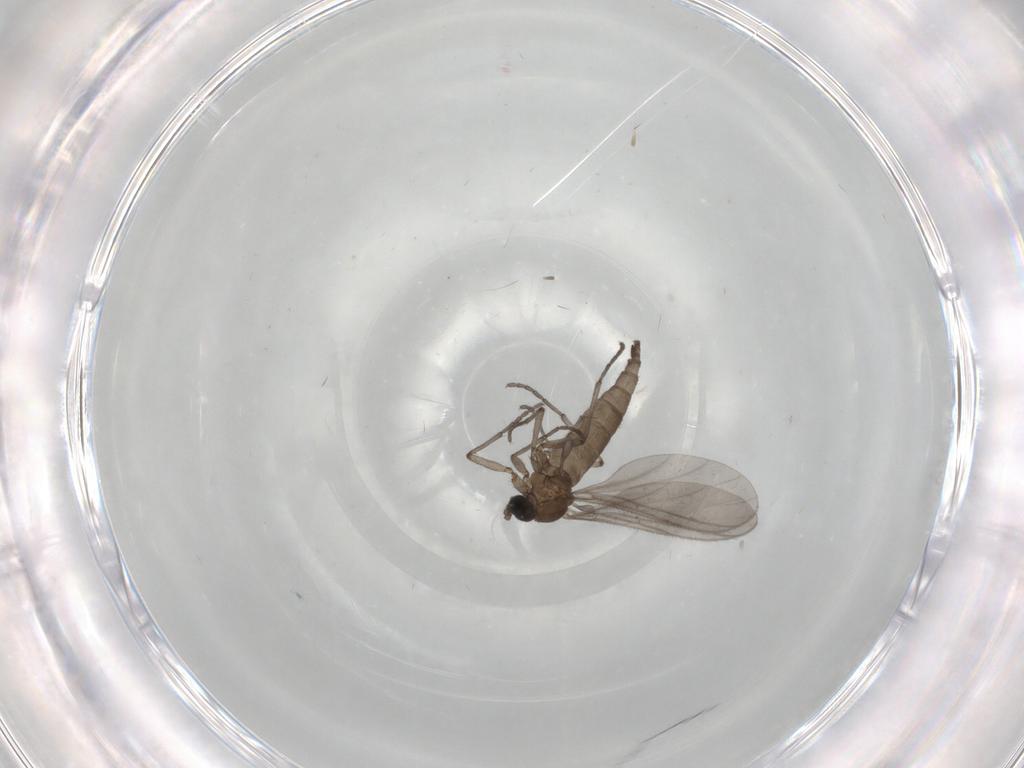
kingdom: Animalia
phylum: Arthropoda
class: Insecta
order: Diptera
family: Sciaridae
